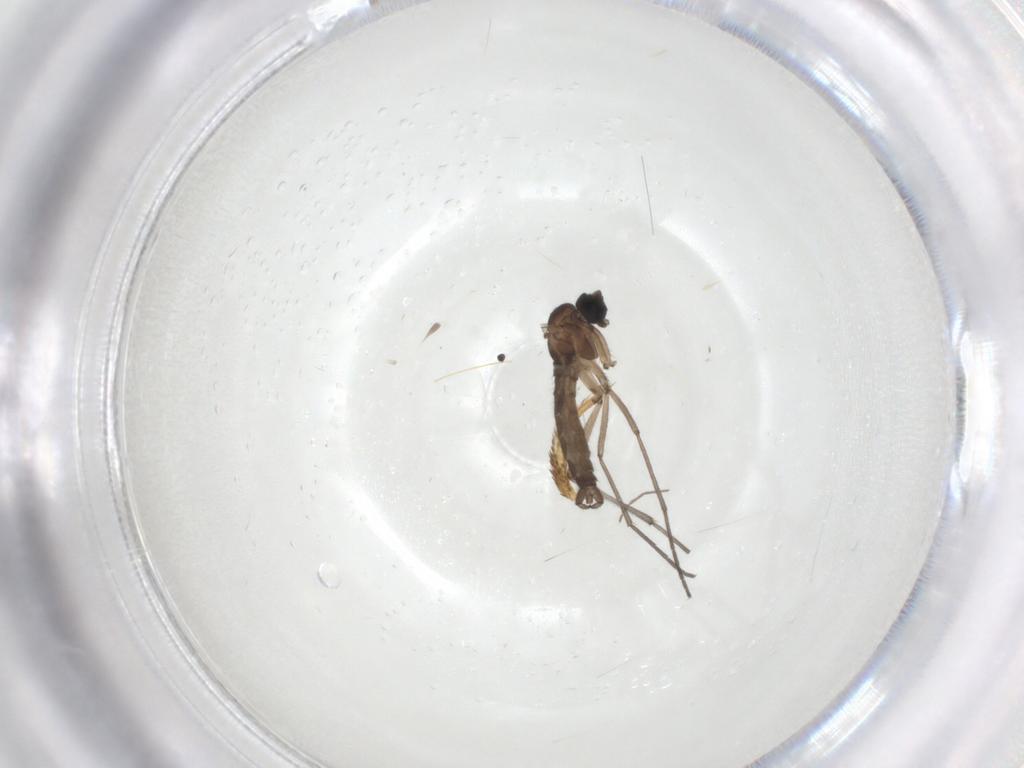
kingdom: Animalia
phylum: Arthropoda
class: Insecta
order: Diptera
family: Sciaridae
